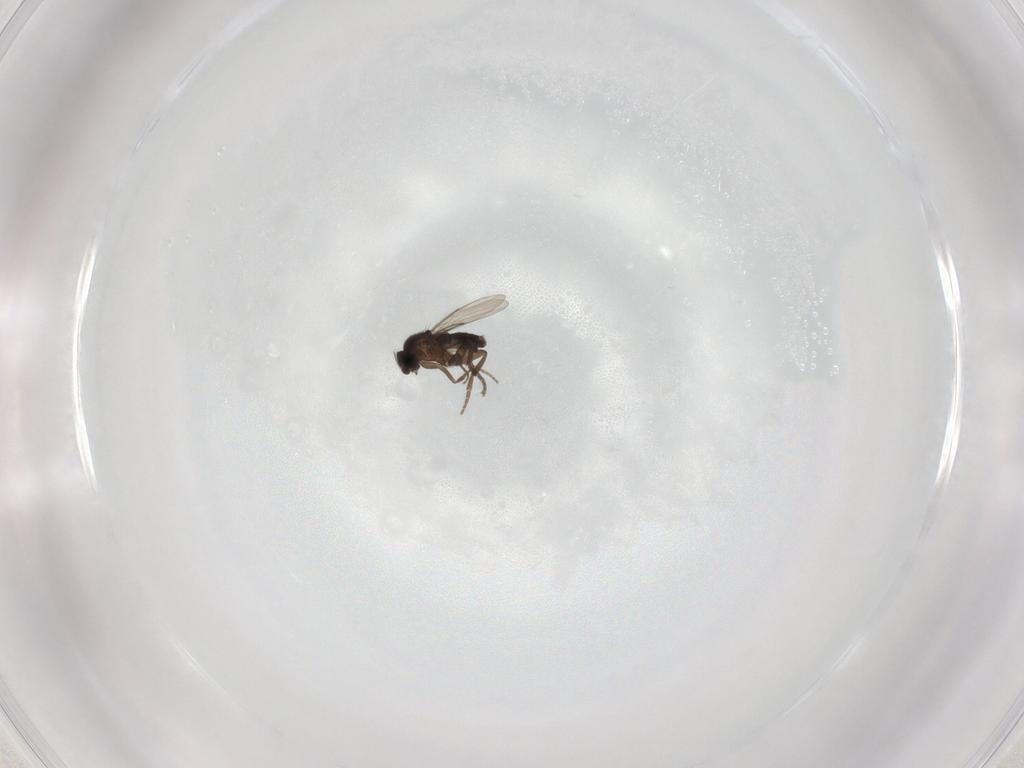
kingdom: Animalia
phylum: Arthropoda
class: Insecta
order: Diptera
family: Phoridae
